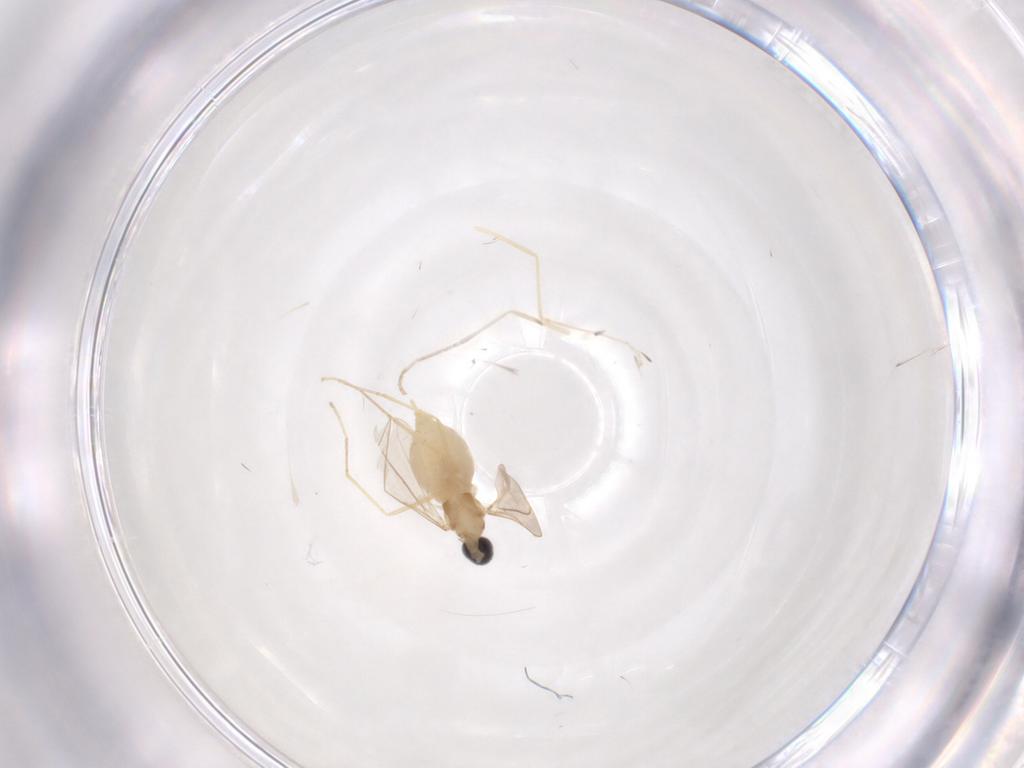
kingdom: Animalia
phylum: Arthropoda
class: Insecta
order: Diptera
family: Cecidomyiidae
